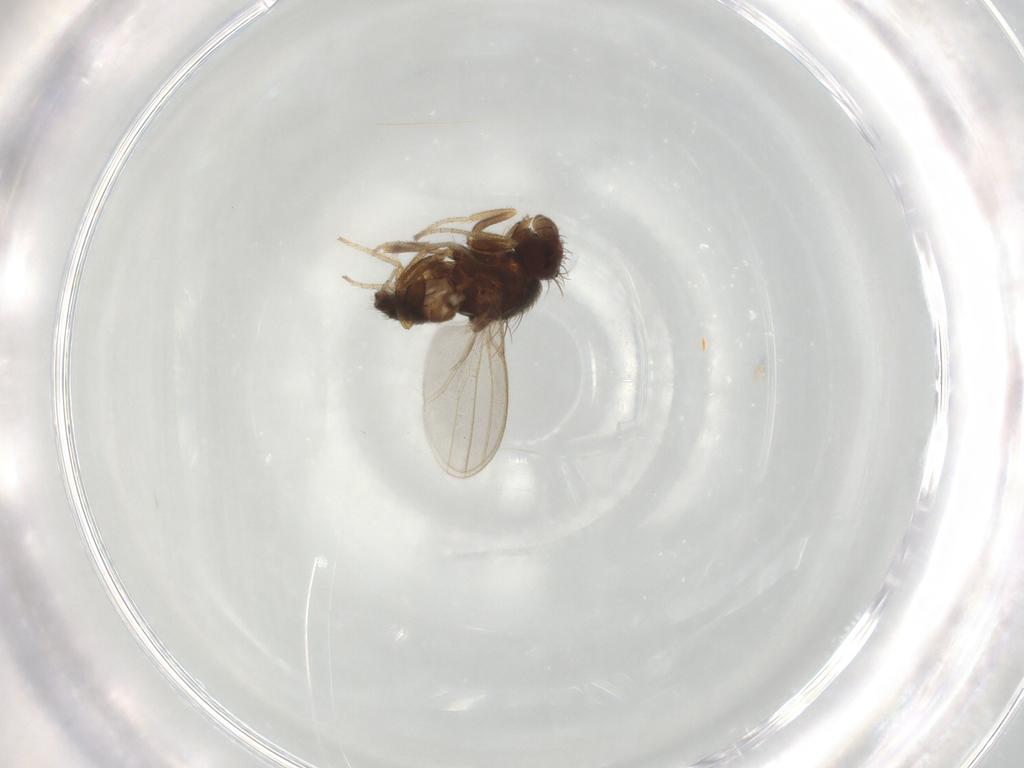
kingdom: Animalia
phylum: Arthropoda
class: Insecta
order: Diptera
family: Milichiidae
